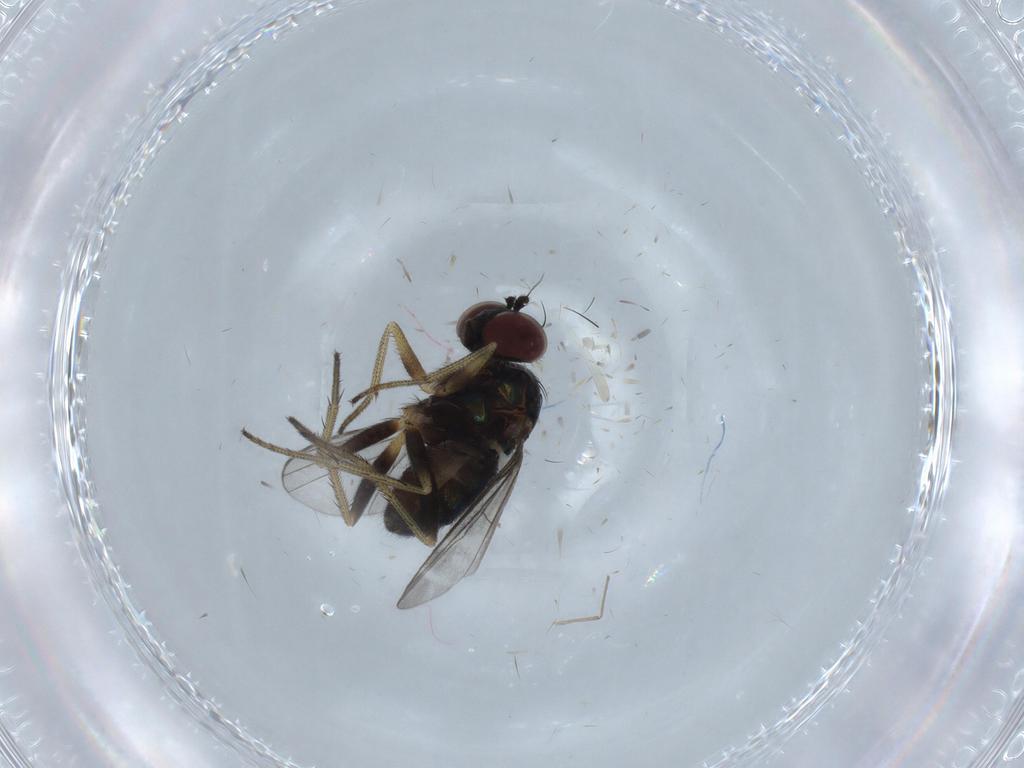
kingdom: Animalia
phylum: Arthropoda
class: Insecta
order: Diptera
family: Dolichopodidae
